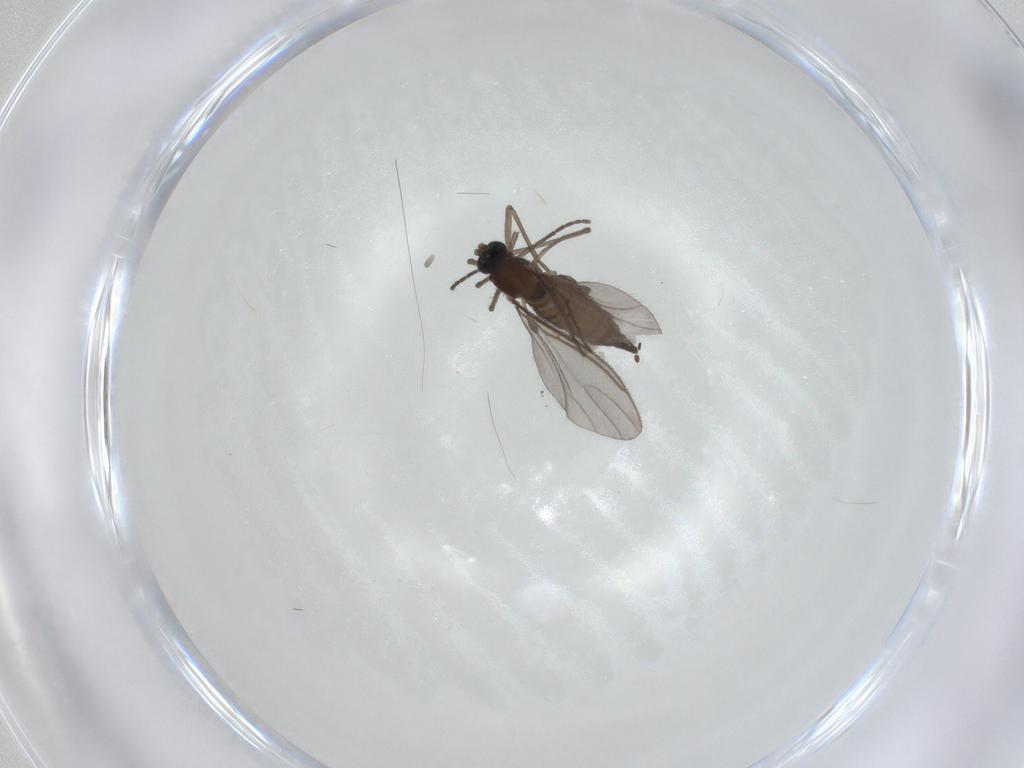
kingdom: Animalia
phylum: Arthropoda
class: Insecta
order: Diptera
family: Sciaridae
